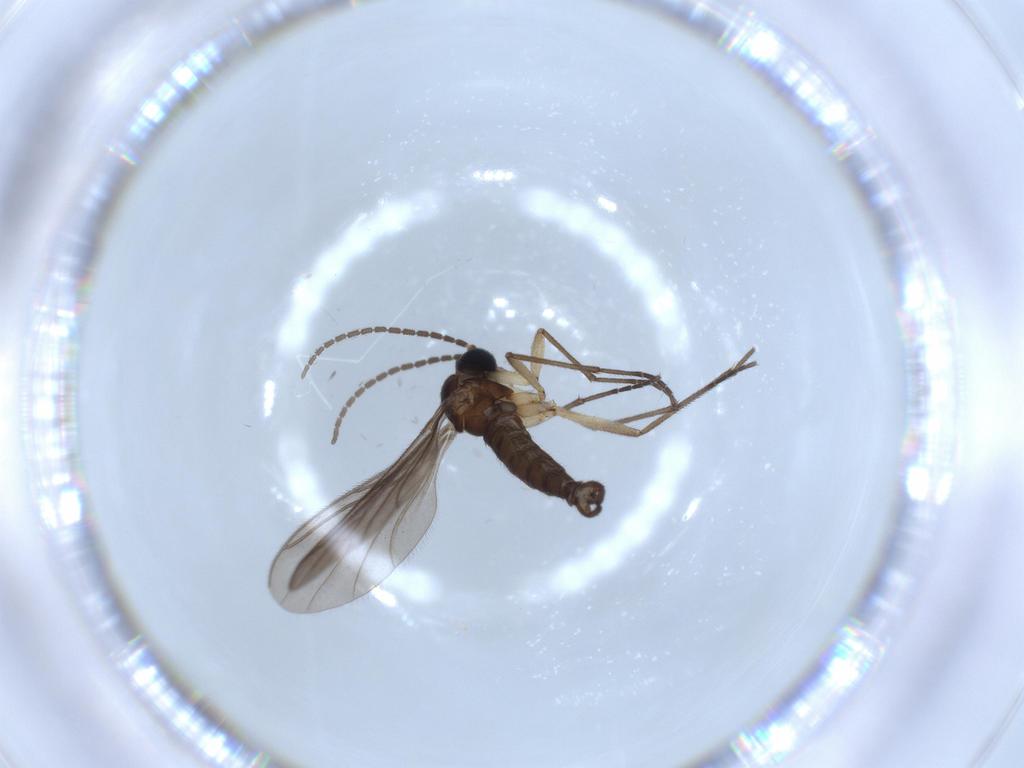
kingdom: Animalia
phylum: Arthropoda
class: Insecta
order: Diptera
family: Sciaridae
